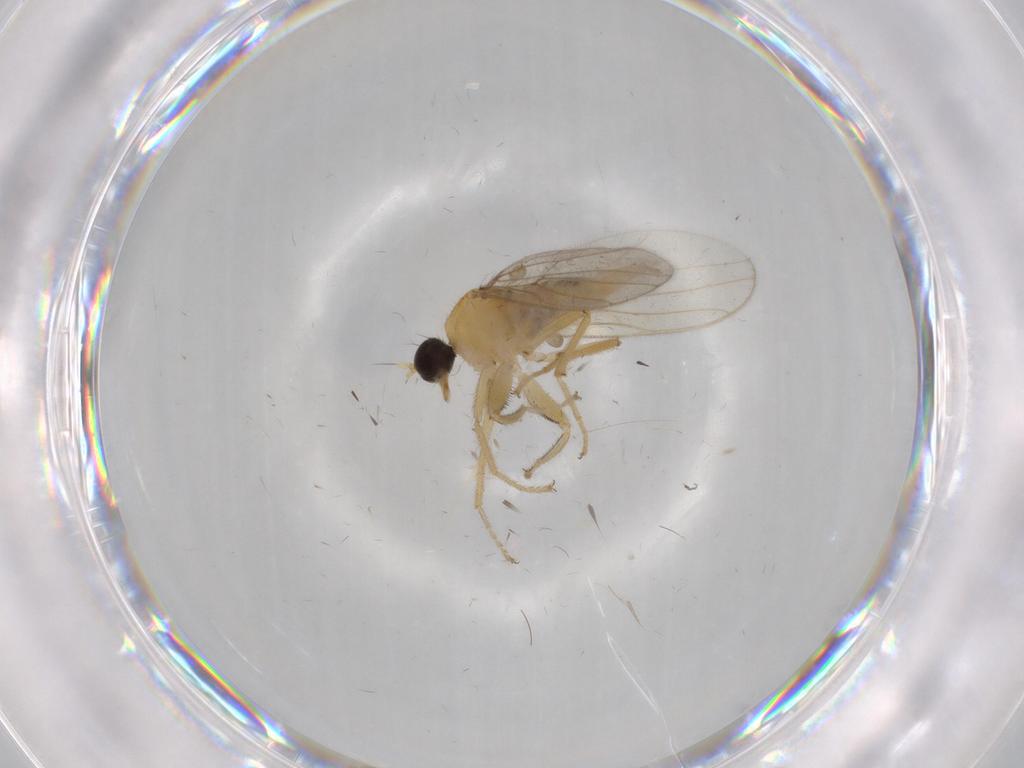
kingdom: Animalia
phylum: Arthropoda
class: Insecta
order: Diptera
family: Hybotidae
